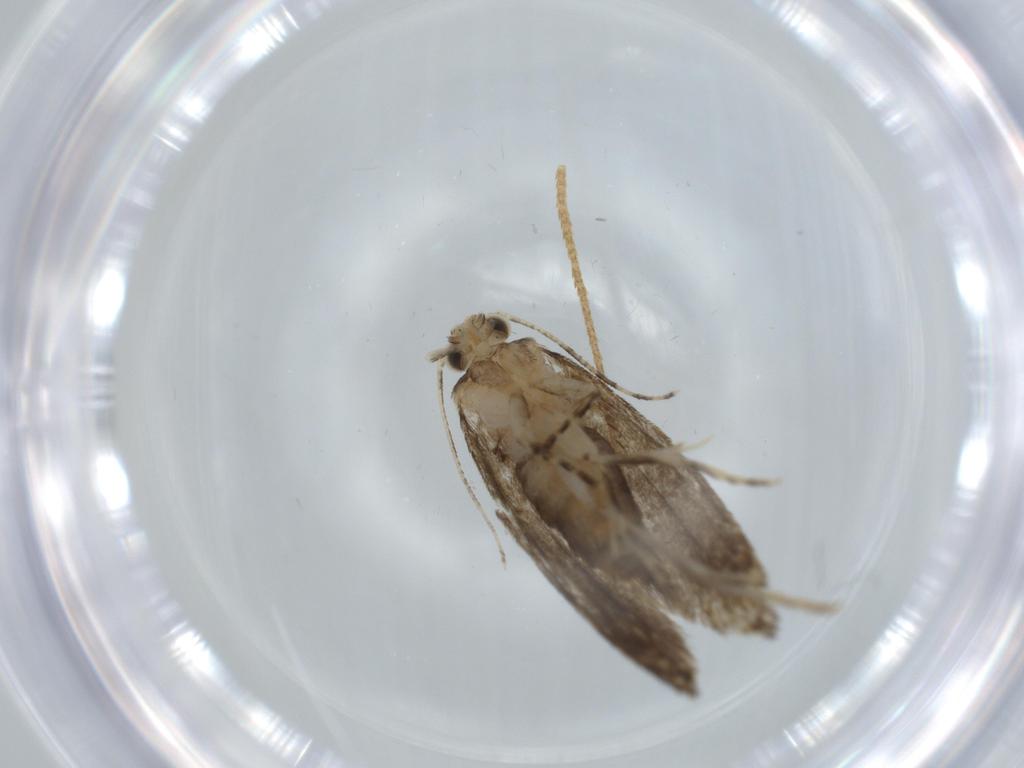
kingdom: Animalia
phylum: Arthropoda
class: Insecta
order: Lepidoptera
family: Tineidae
